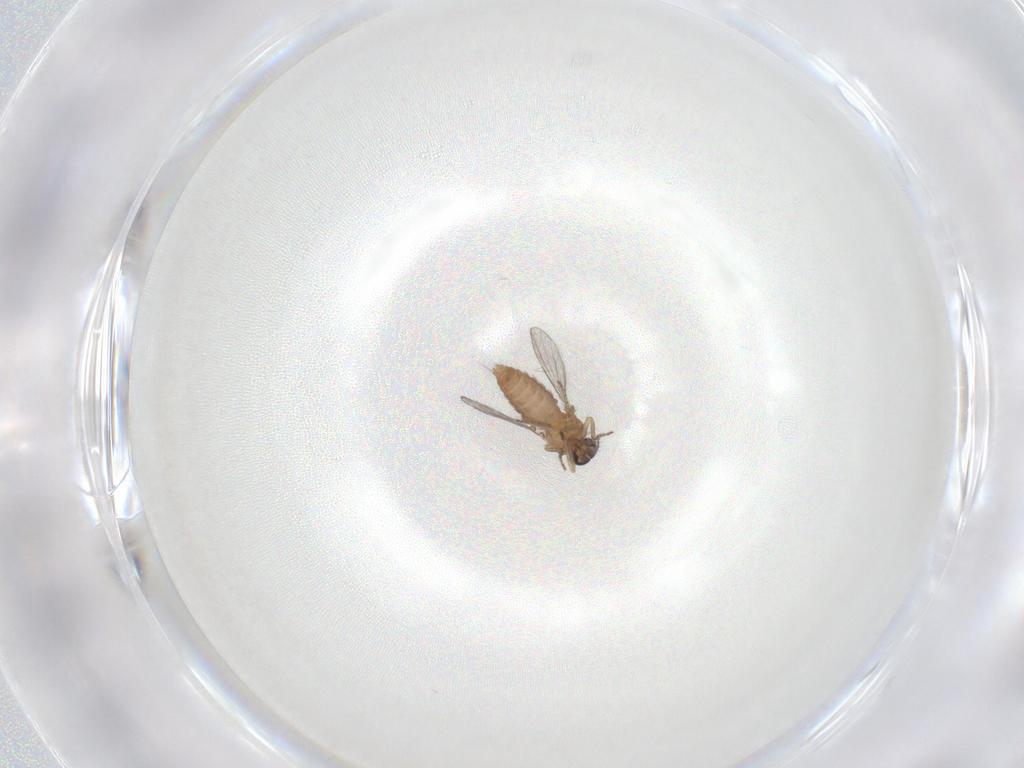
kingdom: Animalia
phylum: Arthropoda
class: Insecta
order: Diptera
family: Ceratopogonidae
